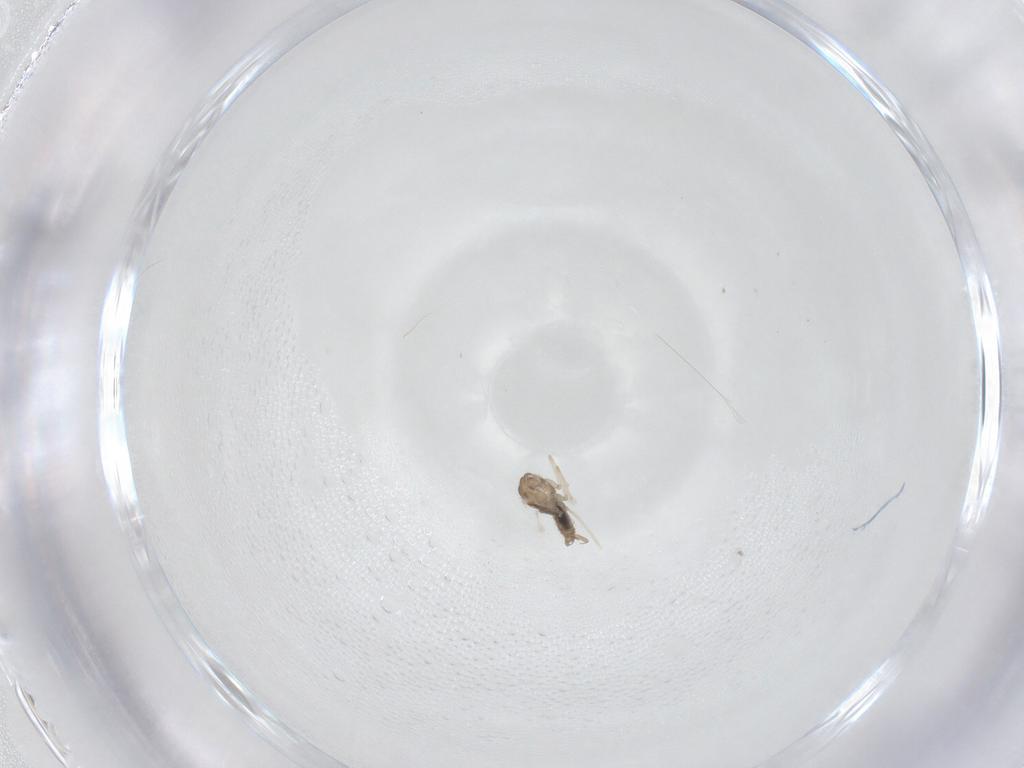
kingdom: Animalia
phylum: Arthropoda
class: Insecta
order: Diptera
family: Cecidomyiidae
